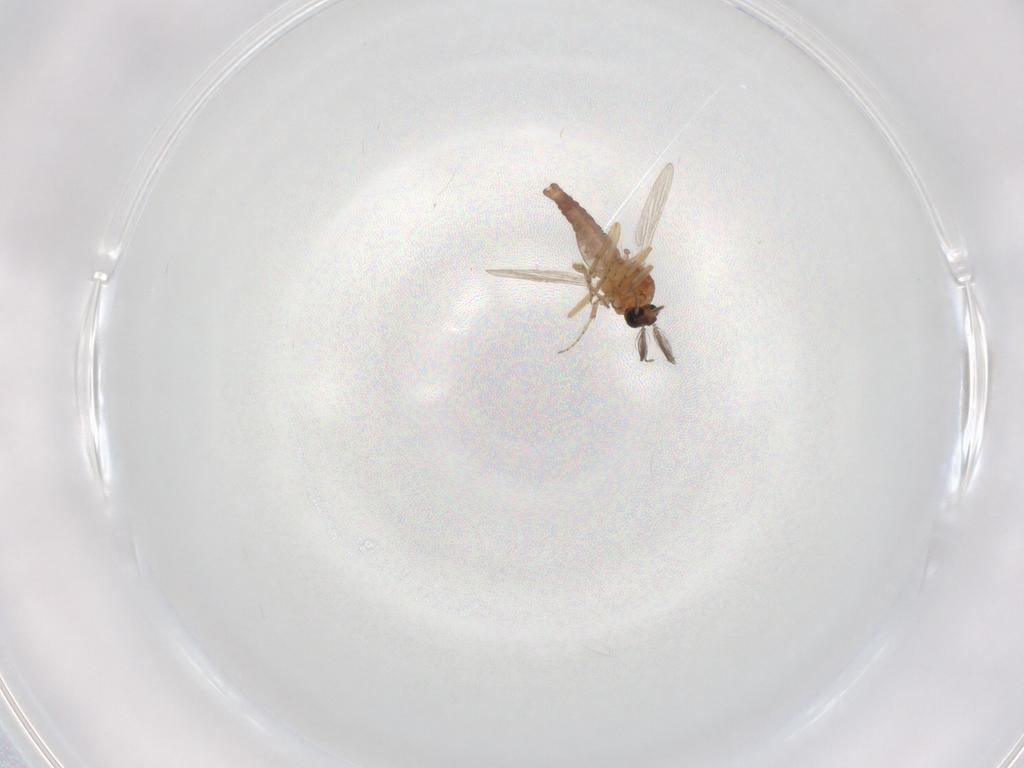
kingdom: Animalia
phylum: Arthropoda
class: Insecta
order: Diptera
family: Ceratopogonidae
